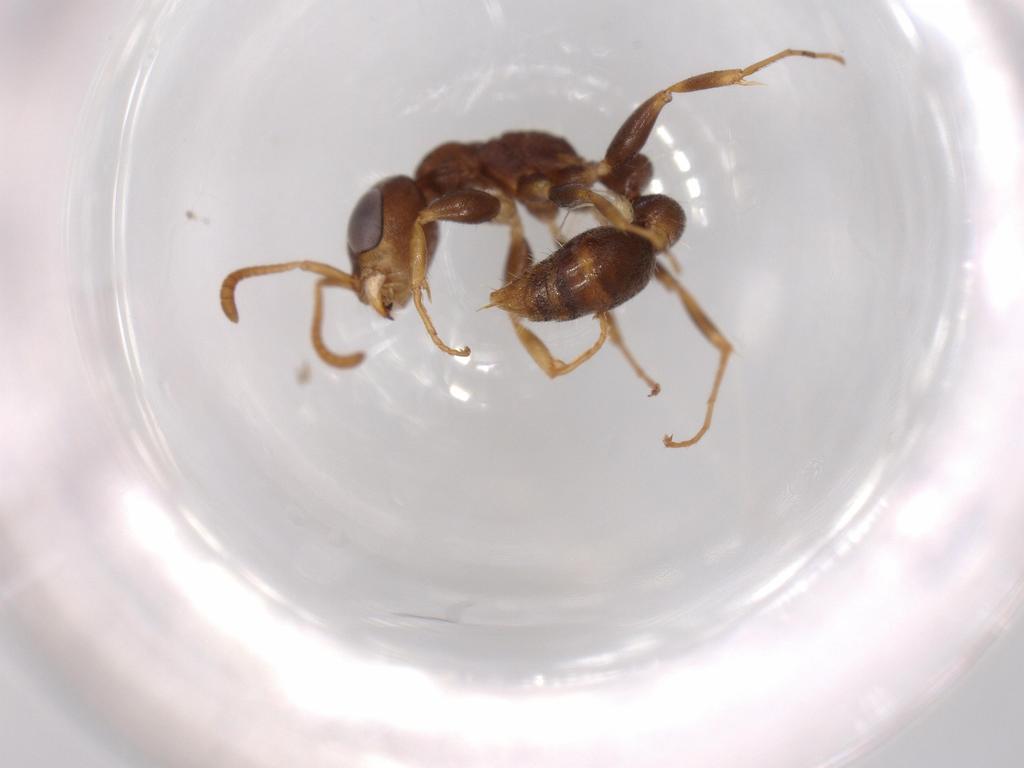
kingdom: Animalia
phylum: Arthropoda
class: Insecta
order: Hymenoptera
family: Formicidae
